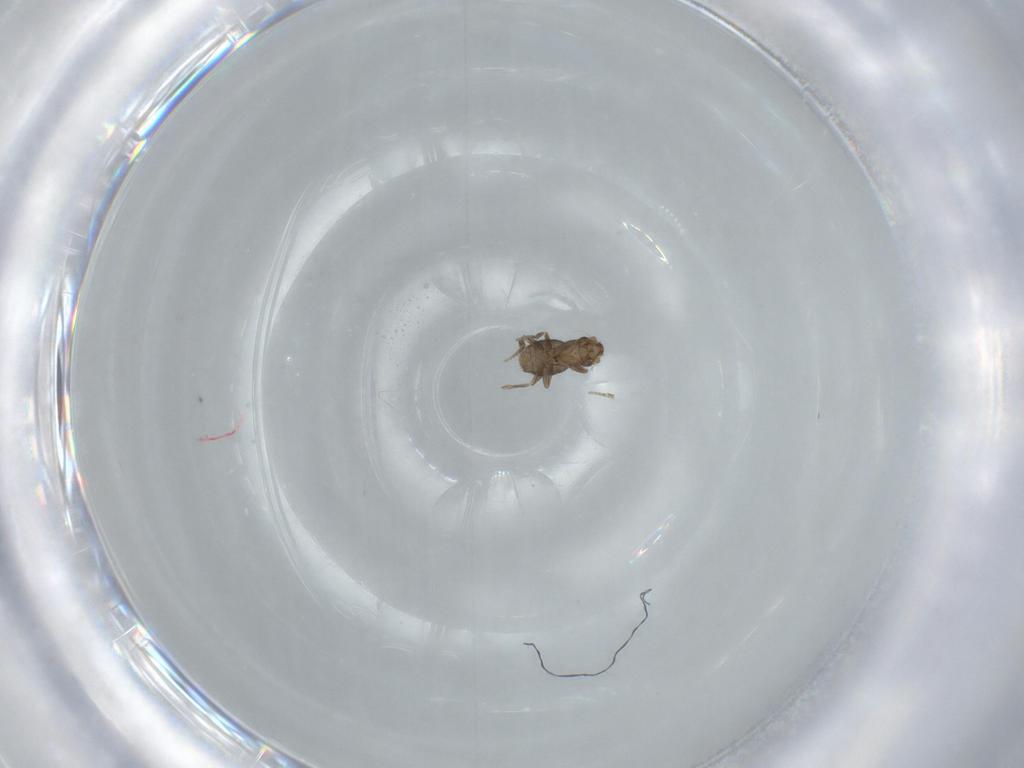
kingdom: Animalia
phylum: Arthropoda
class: Insecta
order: Diptera
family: Phoridae
